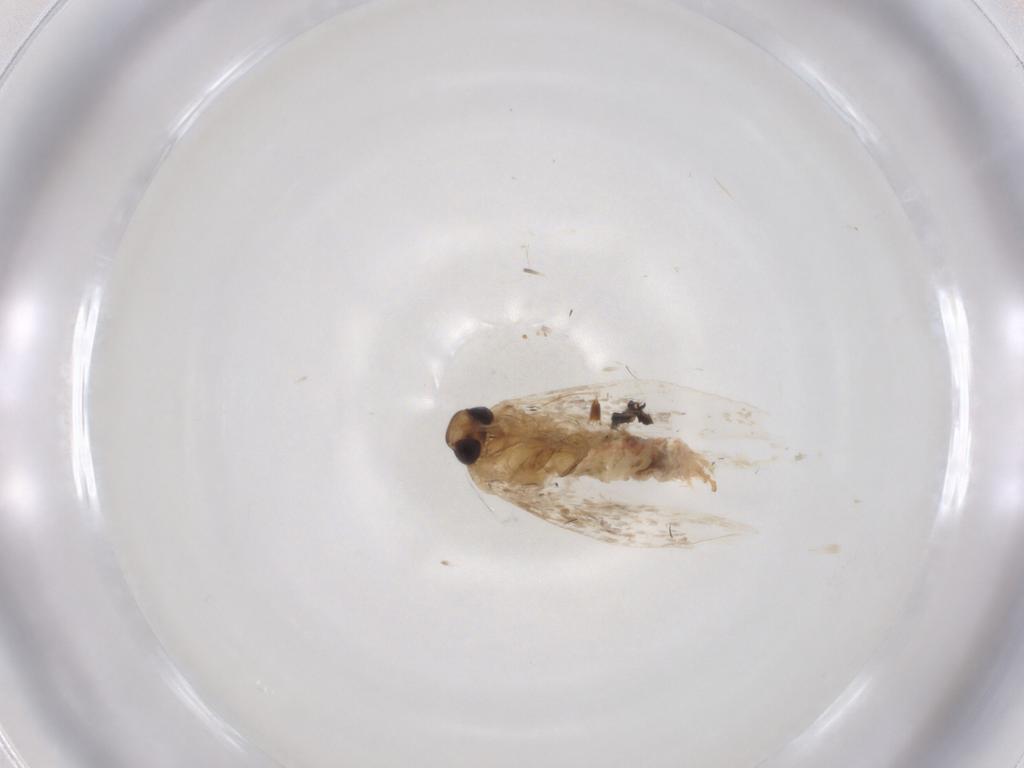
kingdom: Animalia
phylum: Arthropoda
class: Insecta
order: Lepidoptera
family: Cosmopterigidae
